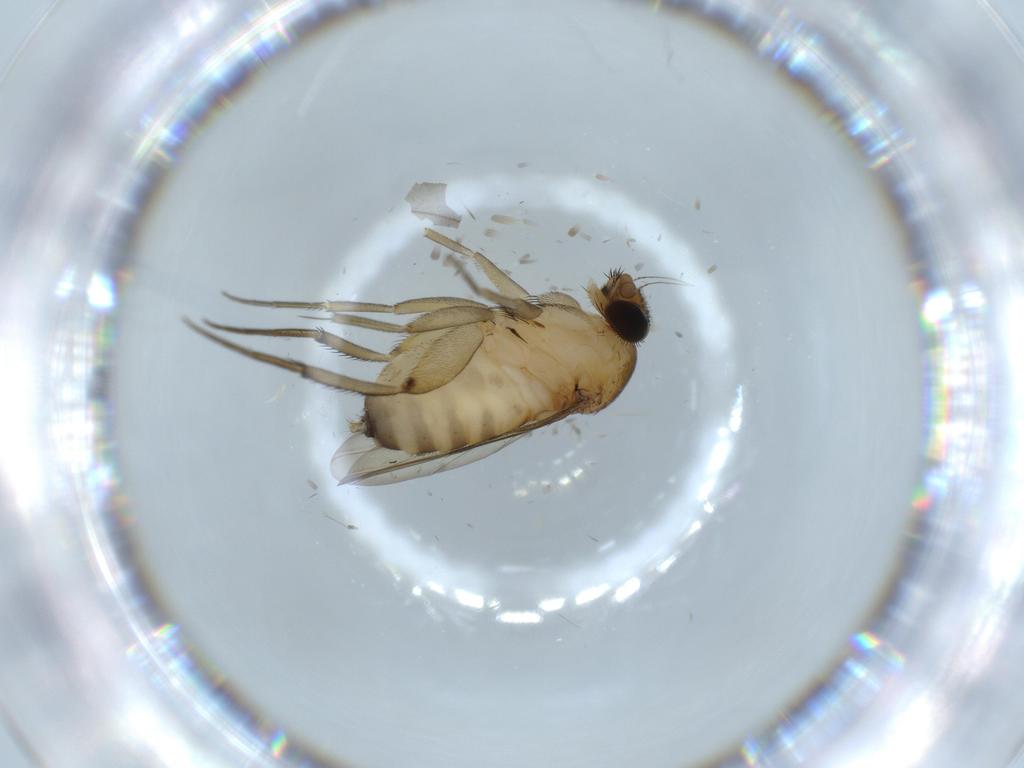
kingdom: Animalia
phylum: Arthropoda
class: Insecta
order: Diptera
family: Phoridae
